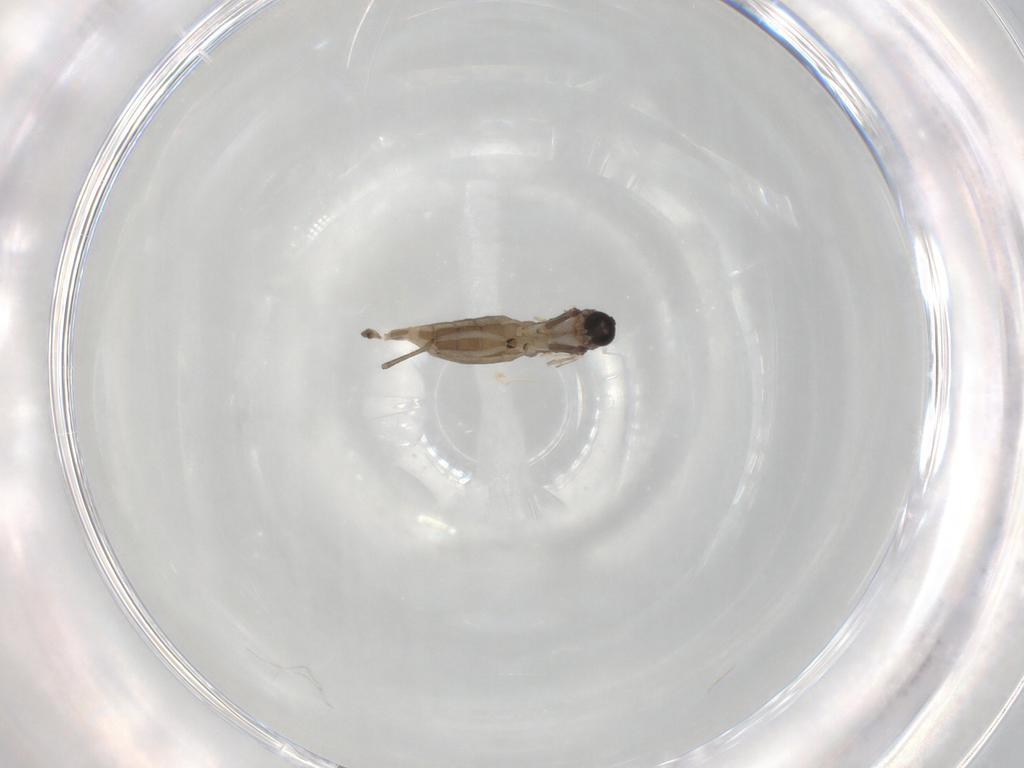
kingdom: Animalia
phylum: Arthropoda
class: Insecta
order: Diptera
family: Sciaridae
